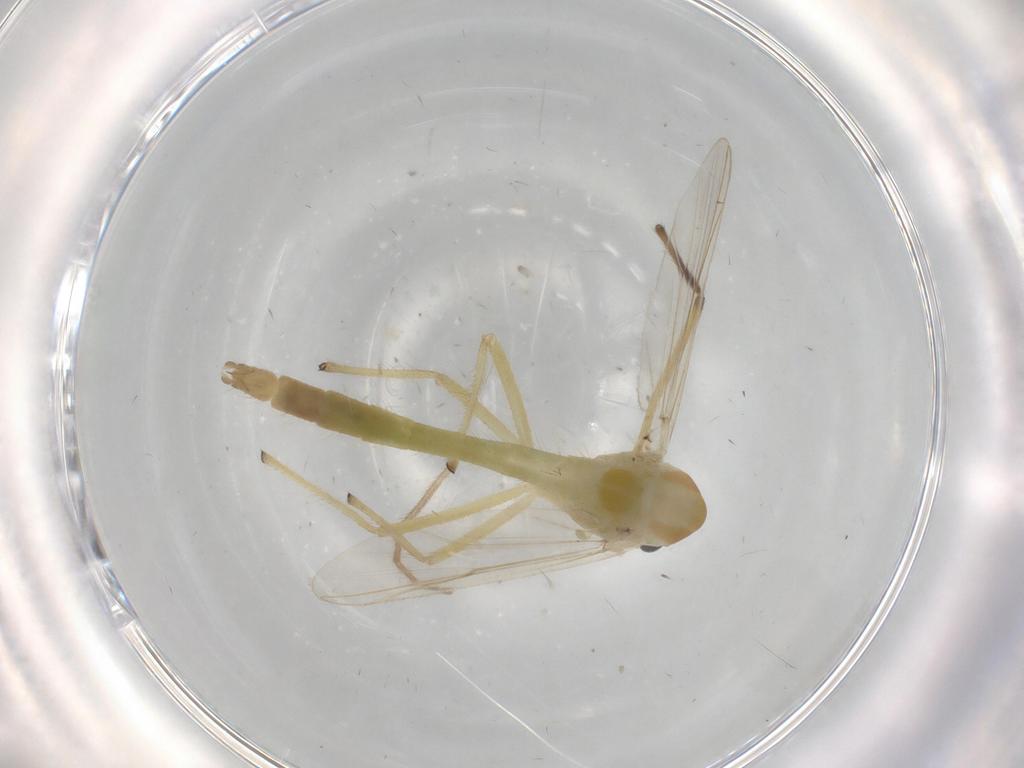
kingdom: Animalia
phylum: Arthropoda
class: Insecta
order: Diptera
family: Chironomidae
